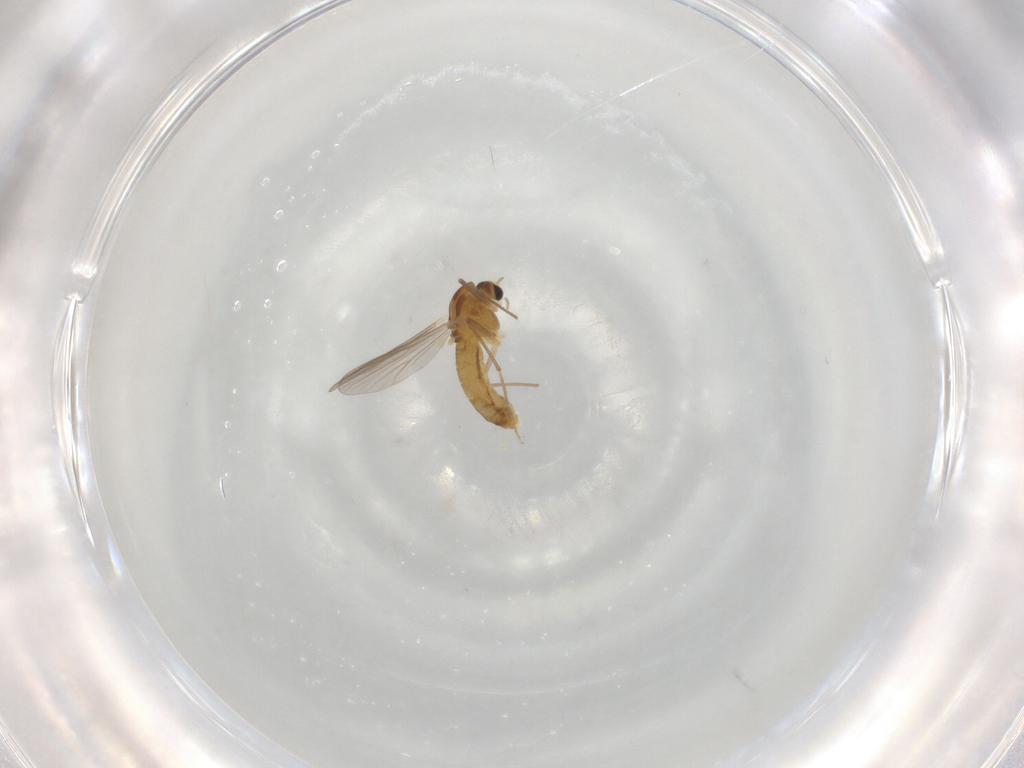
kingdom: Animalia
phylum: Arthropoda
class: Insecta
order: Diptera
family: Chironomidae
